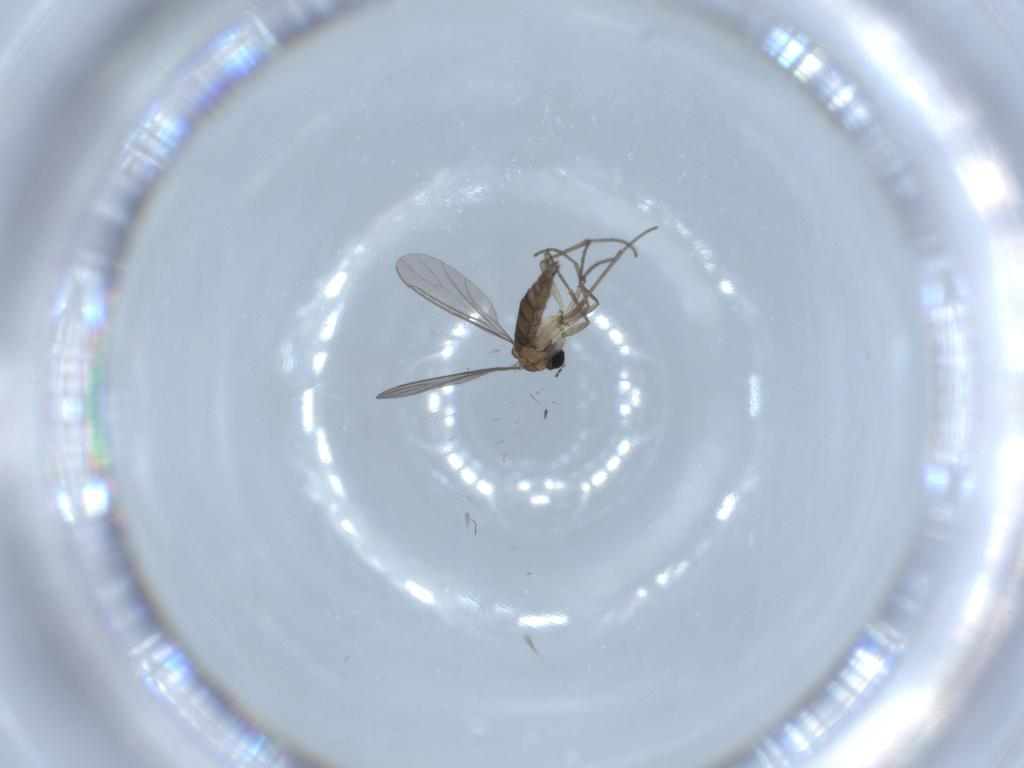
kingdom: Animalia
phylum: Arthropoda
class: Insecta
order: Diptera
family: Sciaridae
